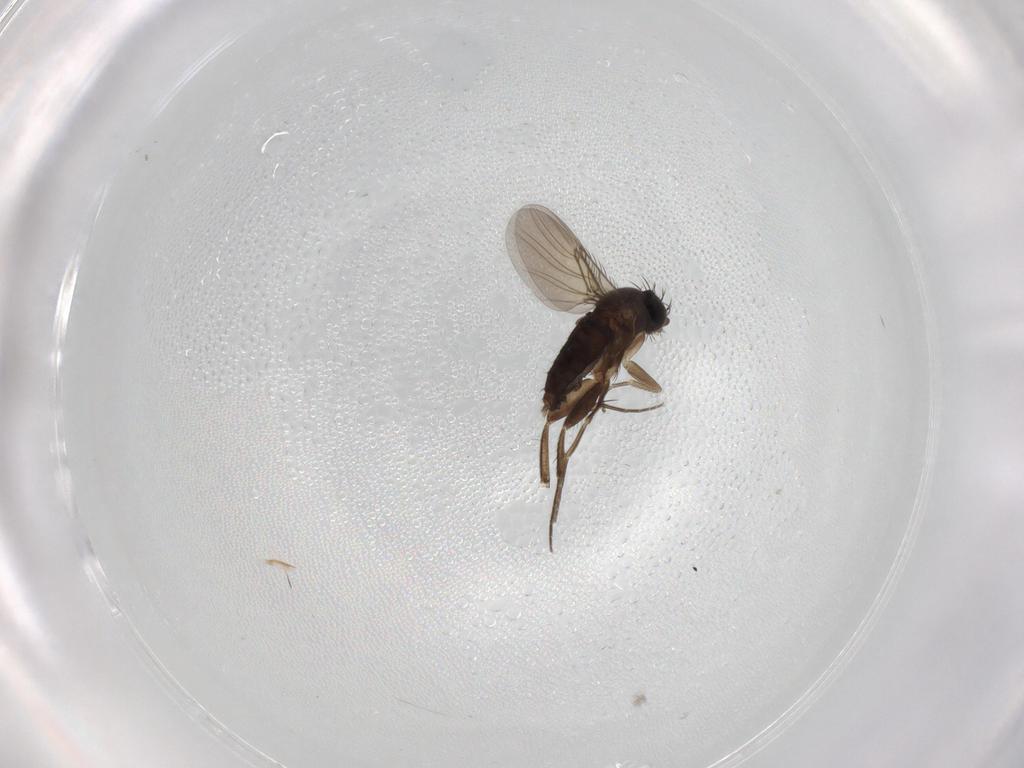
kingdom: Animalia
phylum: Arthropoda
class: Insecta
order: Diptera
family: Phoridae
